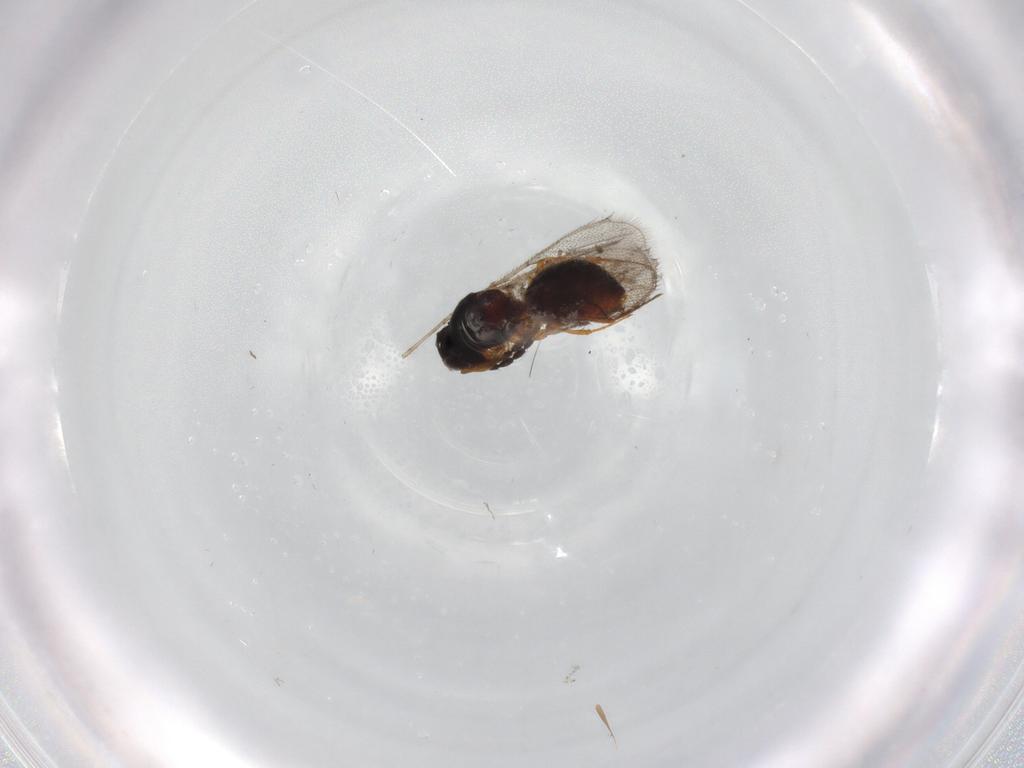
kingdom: Animalia
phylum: Arthropoda
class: Insecta
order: Hymenoptera
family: Figitidae
